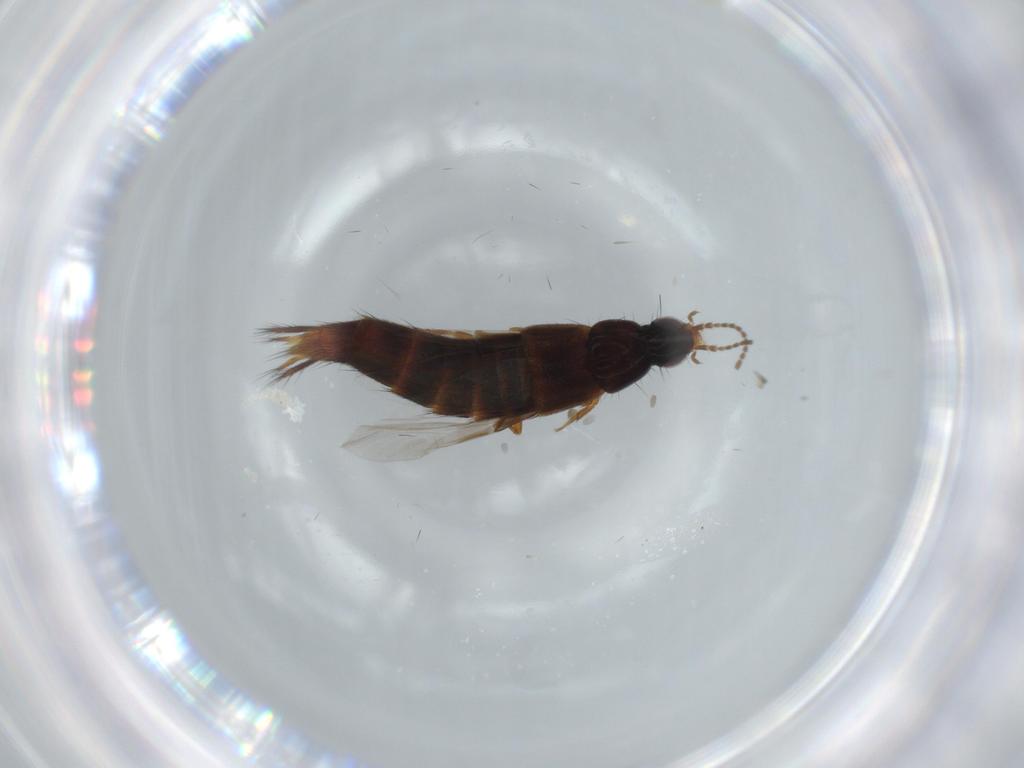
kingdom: Animalia
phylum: Arthropoda
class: Insecta
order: Coleoptera
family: Staphylinidae
